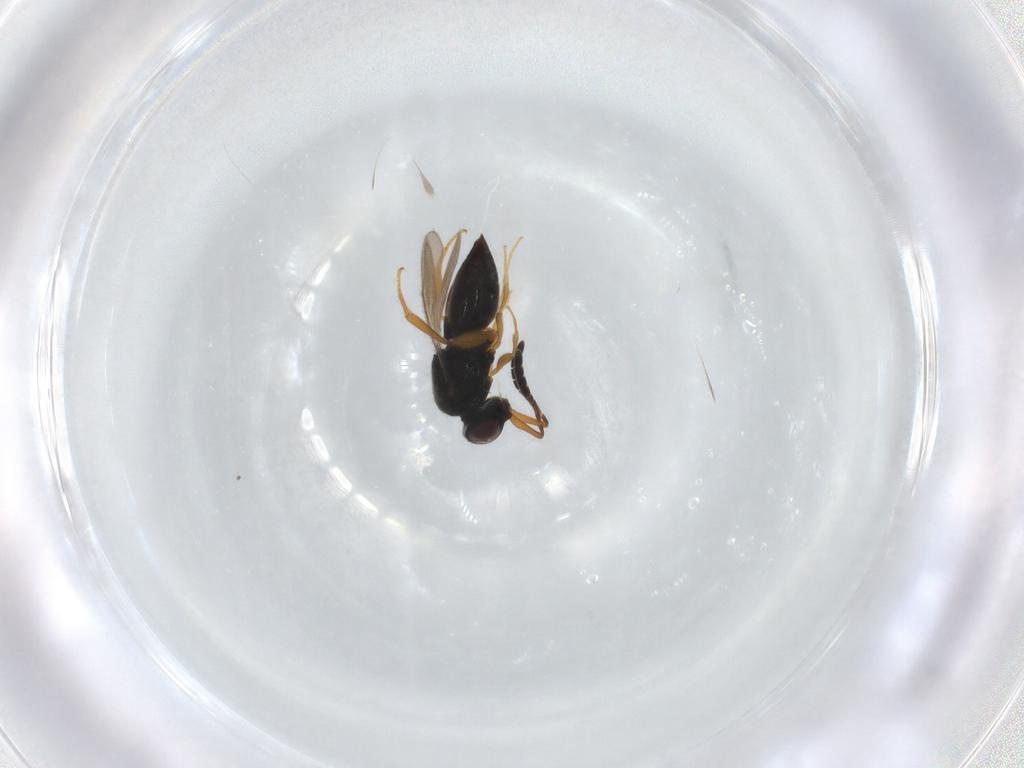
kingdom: Animalia
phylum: Arthropoda
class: Insecta
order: Hymenoptera
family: Ceraphronidae
